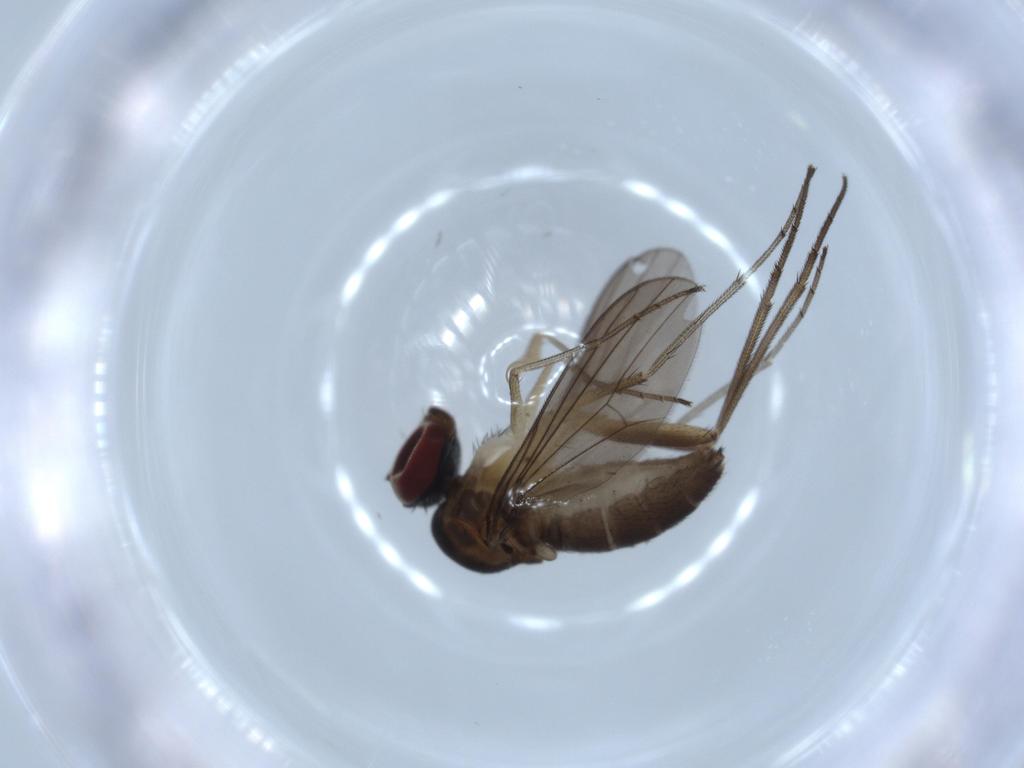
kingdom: Animalia
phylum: Arthropoda
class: Insecta
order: Diptera
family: Dolichopodidae
